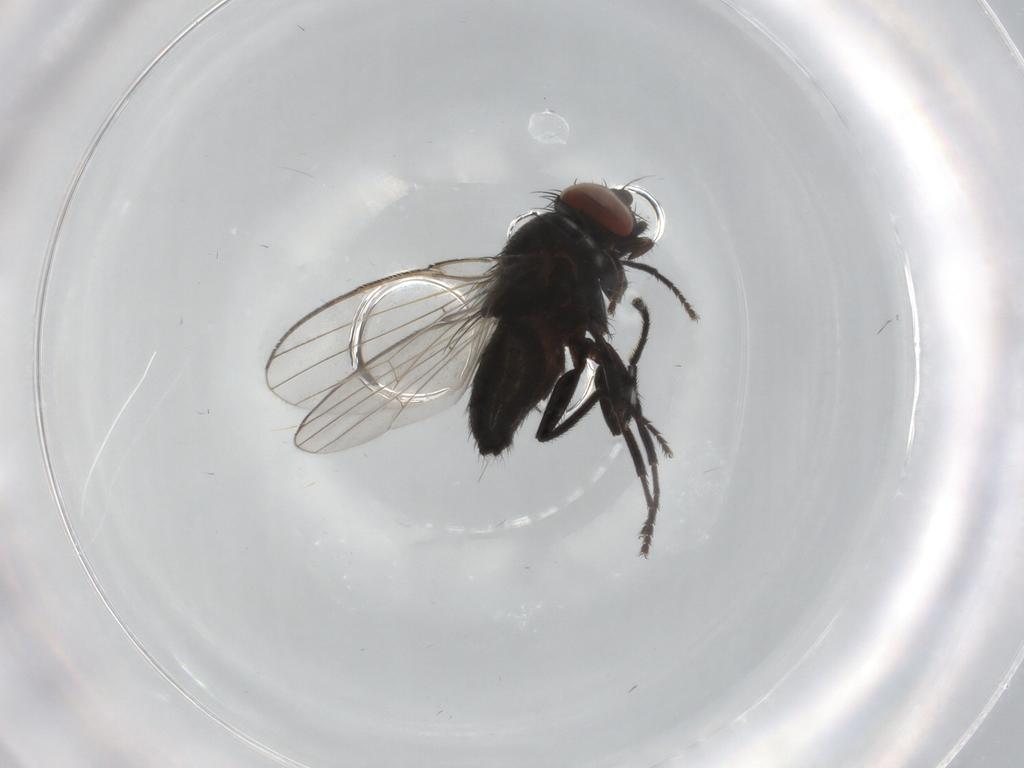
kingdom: Animalia
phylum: Arthropoda
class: Insecta
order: Diptera
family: Milichiidae
